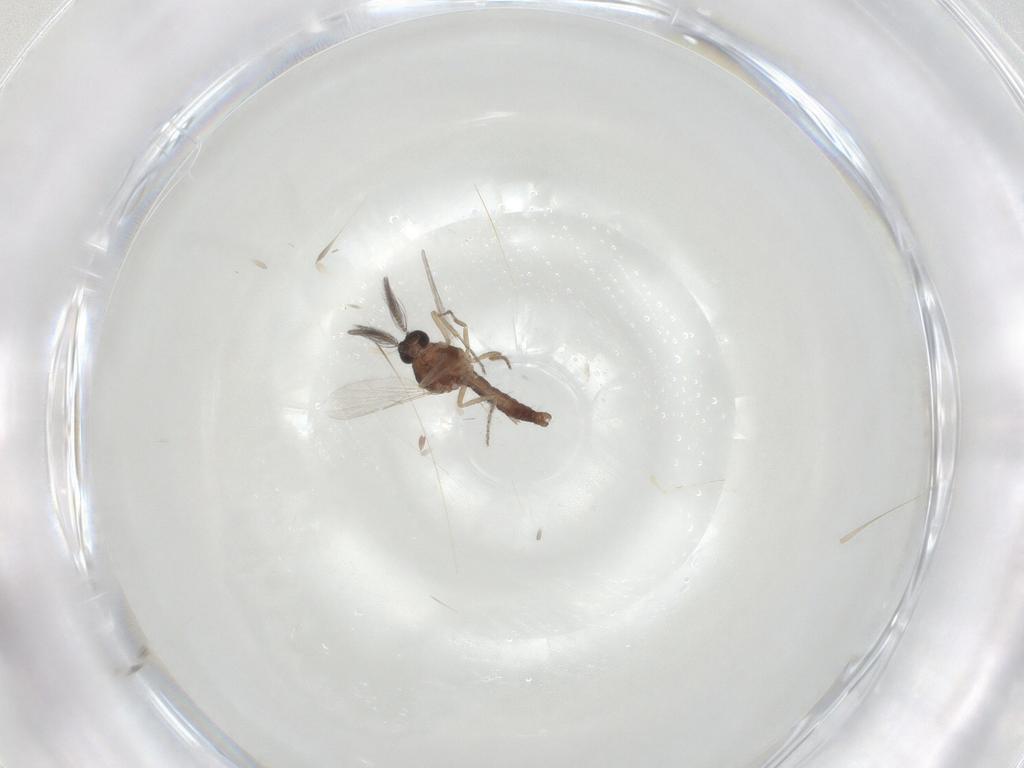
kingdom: Animalia
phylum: Arthropoda
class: Insecta
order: Diptera
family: Ceratopogonidae
